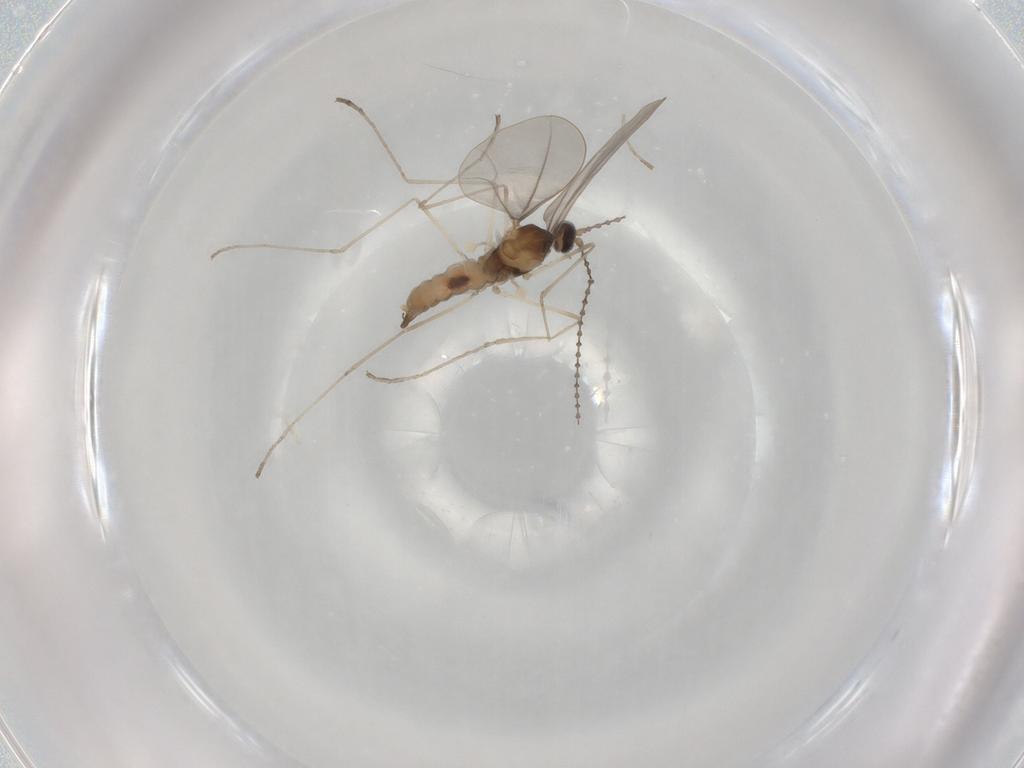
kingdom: Animalia
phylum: Arthropoda
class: Insecta
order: Diptera
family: Cecidomyiidae
